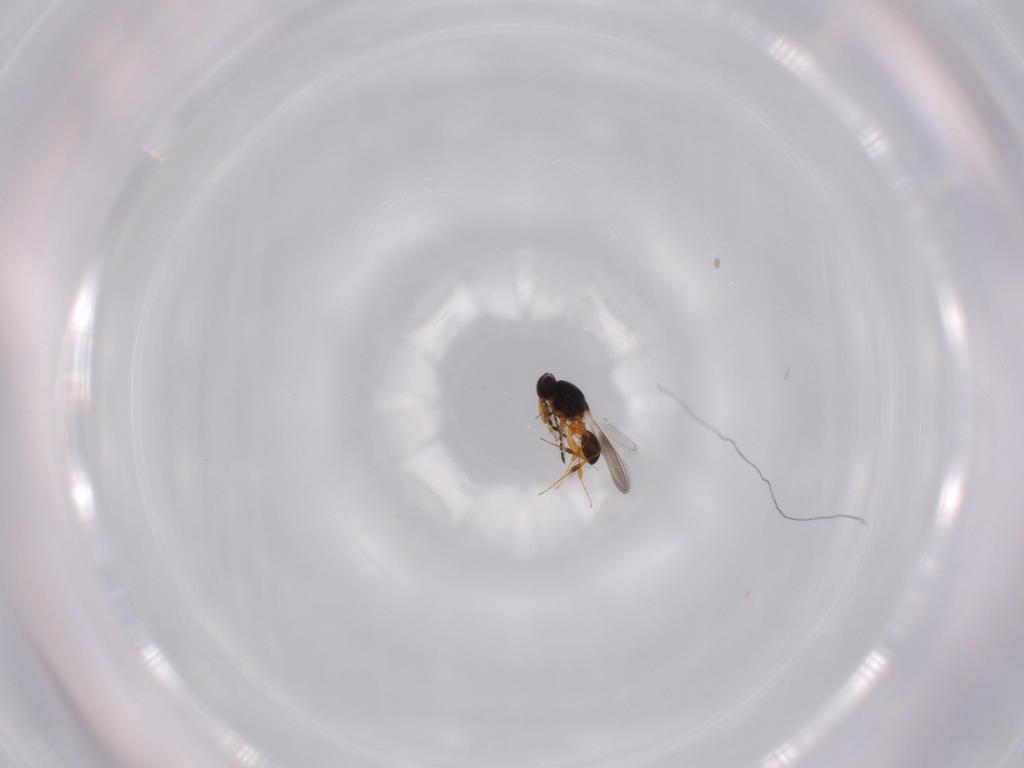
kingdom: Animalia
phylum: Arthropoda
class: Insecta
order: Hymenoptera
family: Platygastridae
